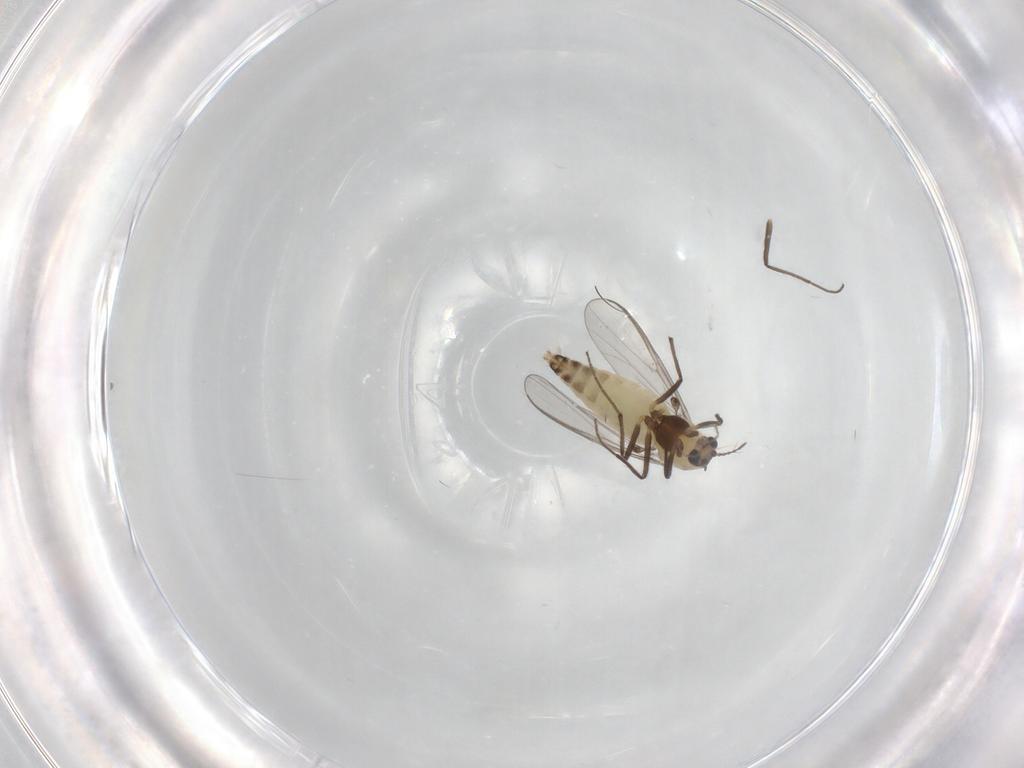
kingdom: Animalia
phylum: Arthropoda
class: Insecta
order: Diptera
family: Chironomidae
